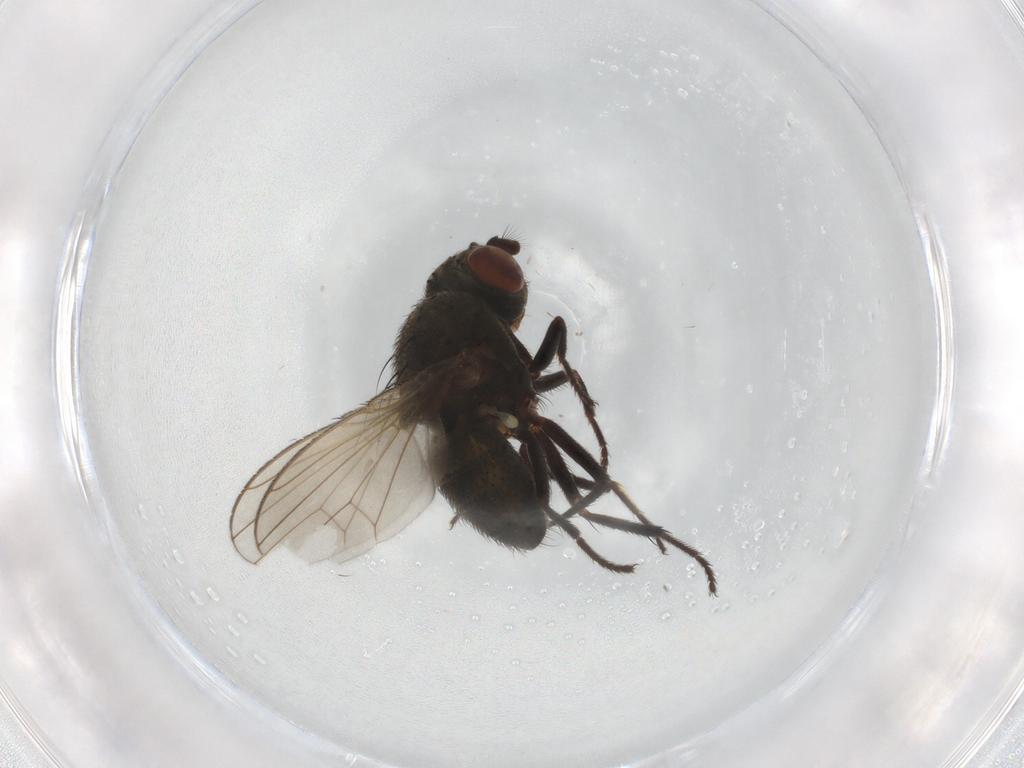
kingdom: Animalia
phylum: Arthropoda
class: Insecta
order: Diptera
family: Ephydridae
